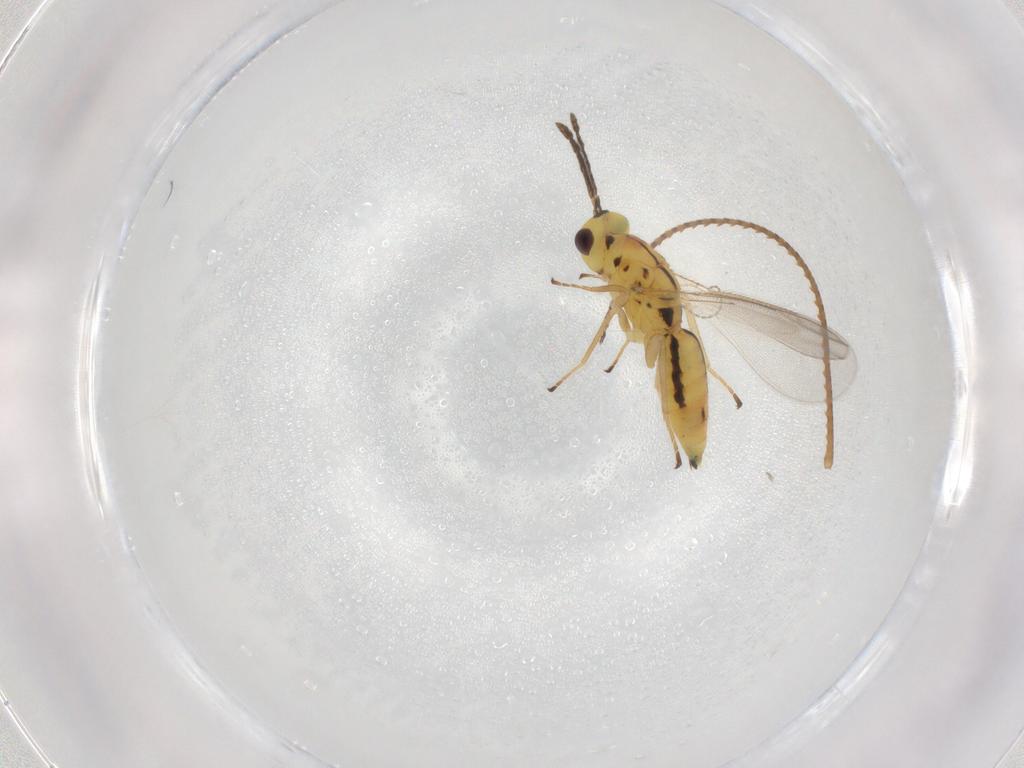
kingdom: Animalia
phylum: Arthropoda
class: Insecta
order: Hymenoptera
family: Eulophidae
